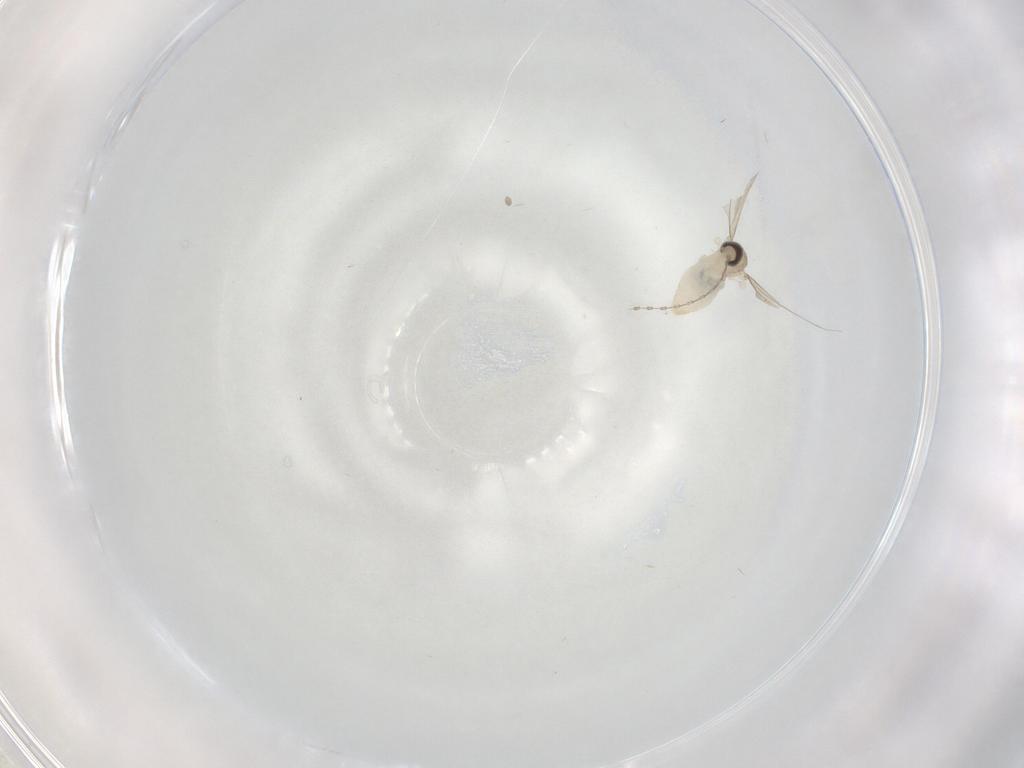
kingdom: Animalia
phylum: Arthropoda
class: Insecta
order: Diptera
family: Cecidomyiidae
